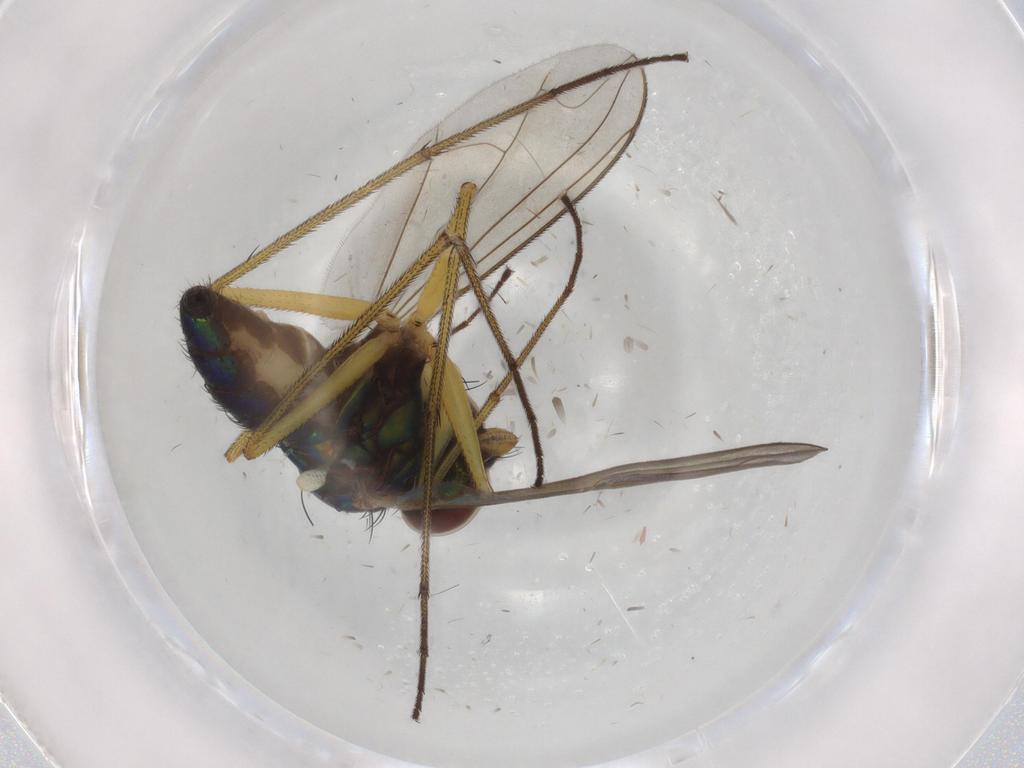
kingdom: Animalia
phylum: Arthropoda
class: Insecta
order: Diptera
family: Dolichopodidae
